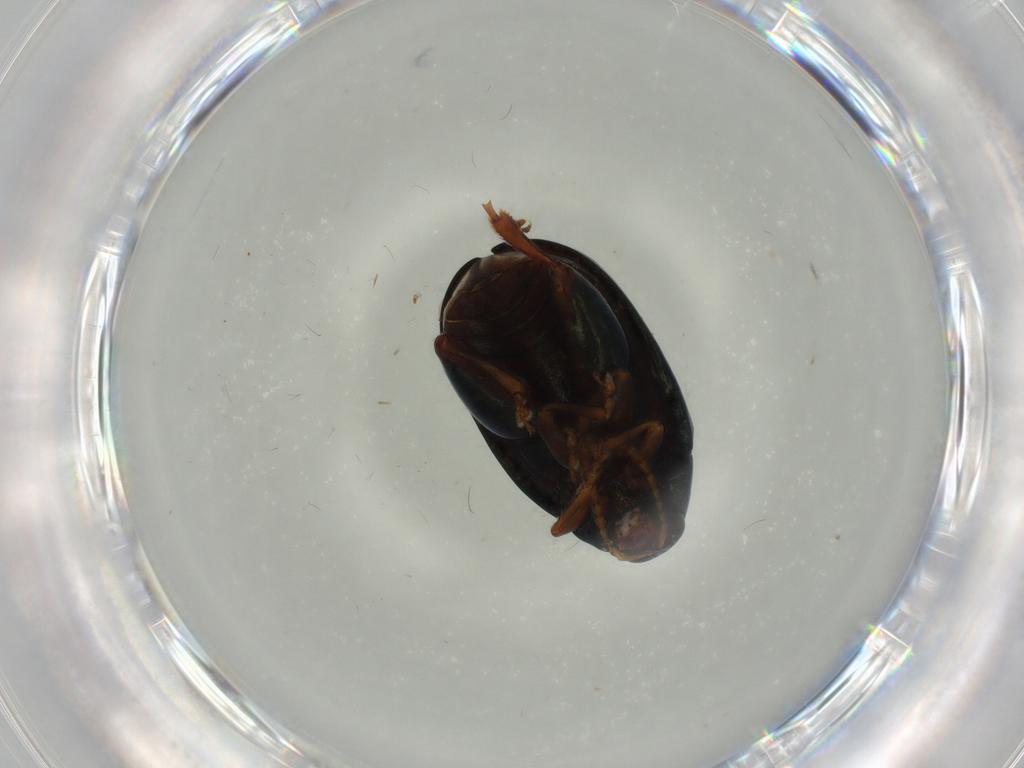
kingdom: Animalia
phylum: Arthropoda
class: Insecta
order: Coleoptera
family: Chrysomelidae
